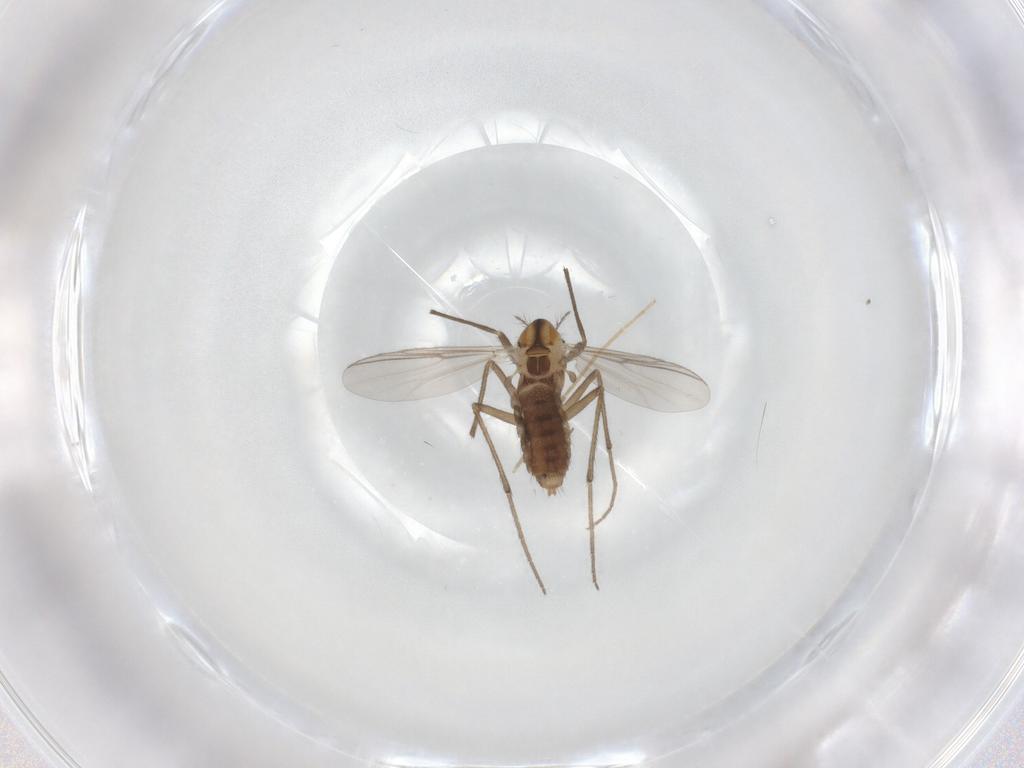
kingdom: Animalia
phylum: Arthropoda
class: Insecta
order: Diptera
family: Chironomidae
